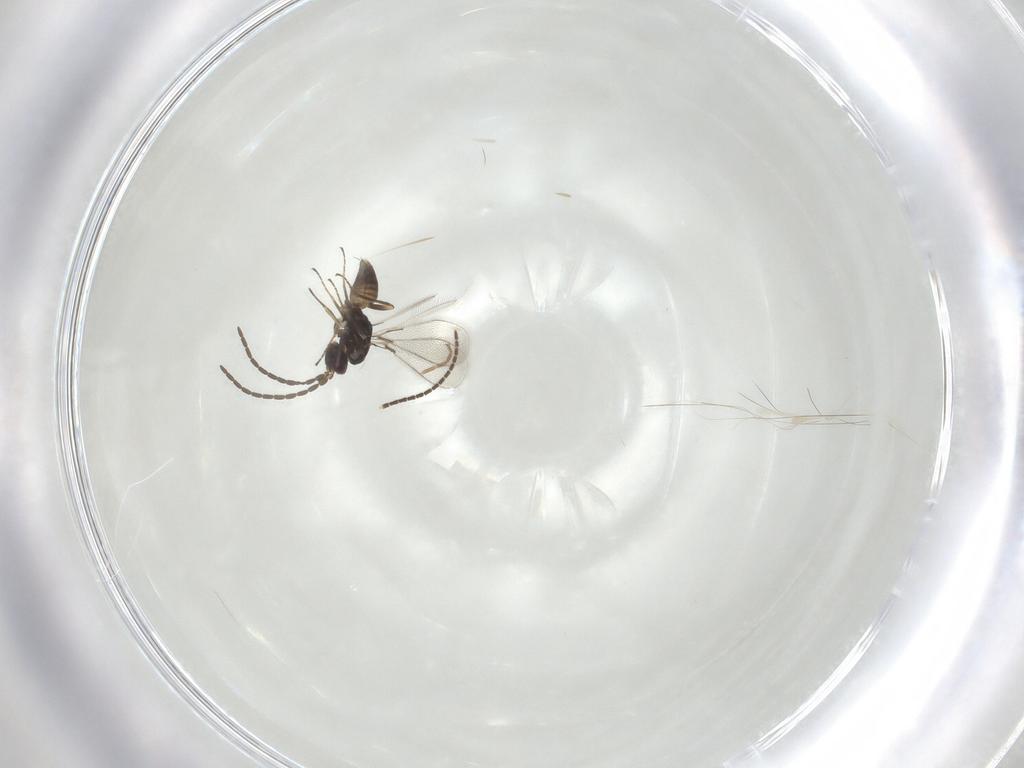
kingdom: Animalia
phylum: Arthropoda
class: Insecta
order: Hymenoptera
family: Mymaridae
